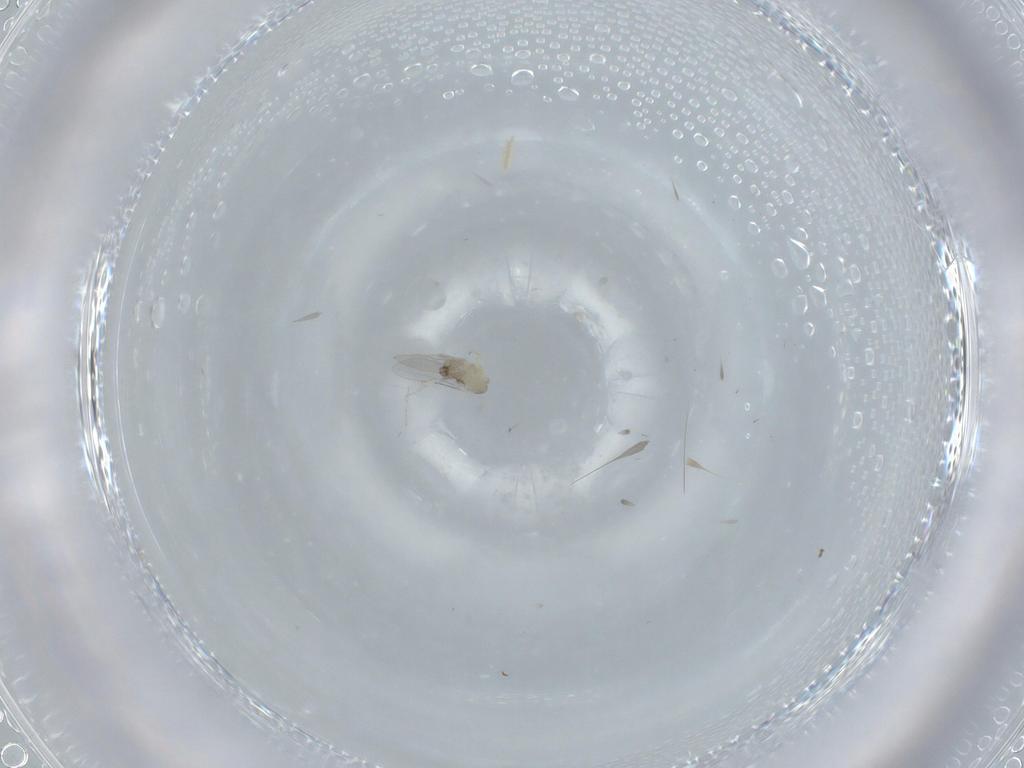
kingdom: Animalia
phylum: Arthropoda
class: Insecta
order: Diptera
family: Cecidomyiidae
